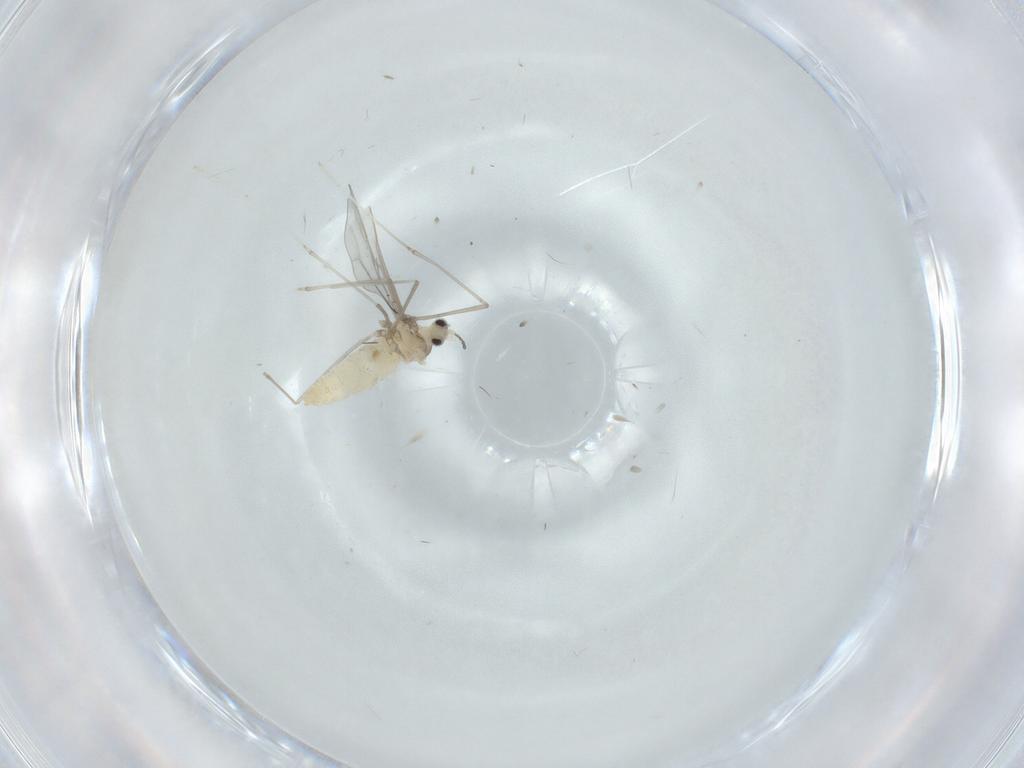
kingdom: Animalia
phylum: Arthropoda
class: Insecta
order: Diptera
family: Cecidomyiidae
